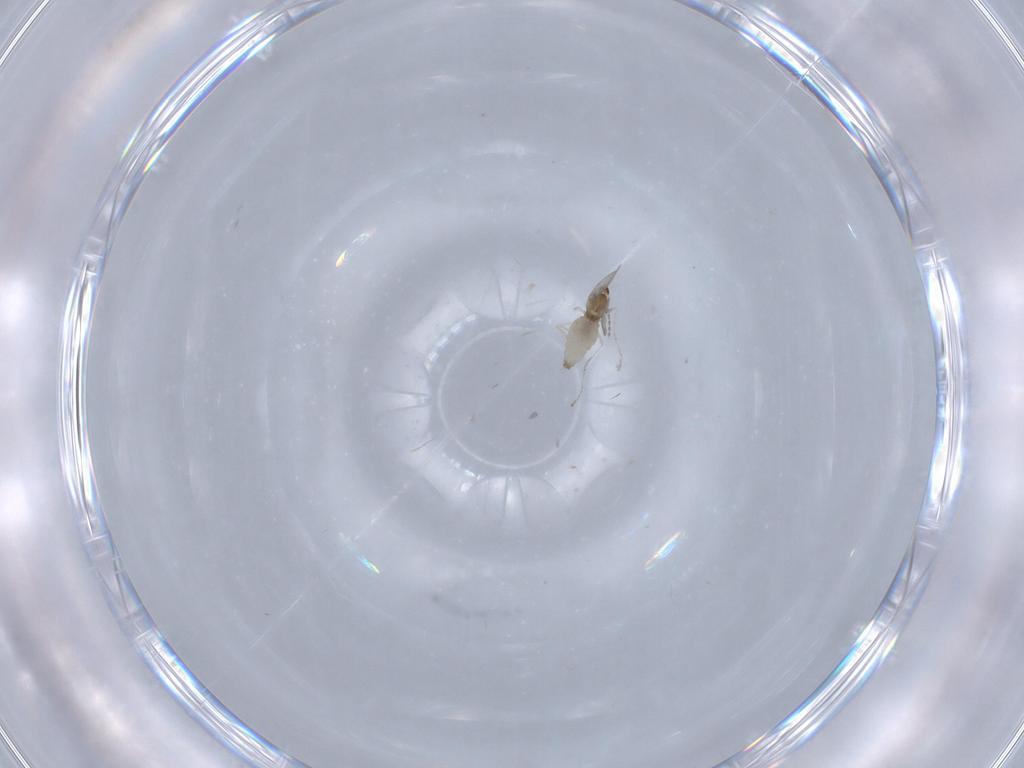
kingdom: Animalia
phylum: Arthropoda
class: Insecta
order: Diptera
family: Cecidomyiidae
